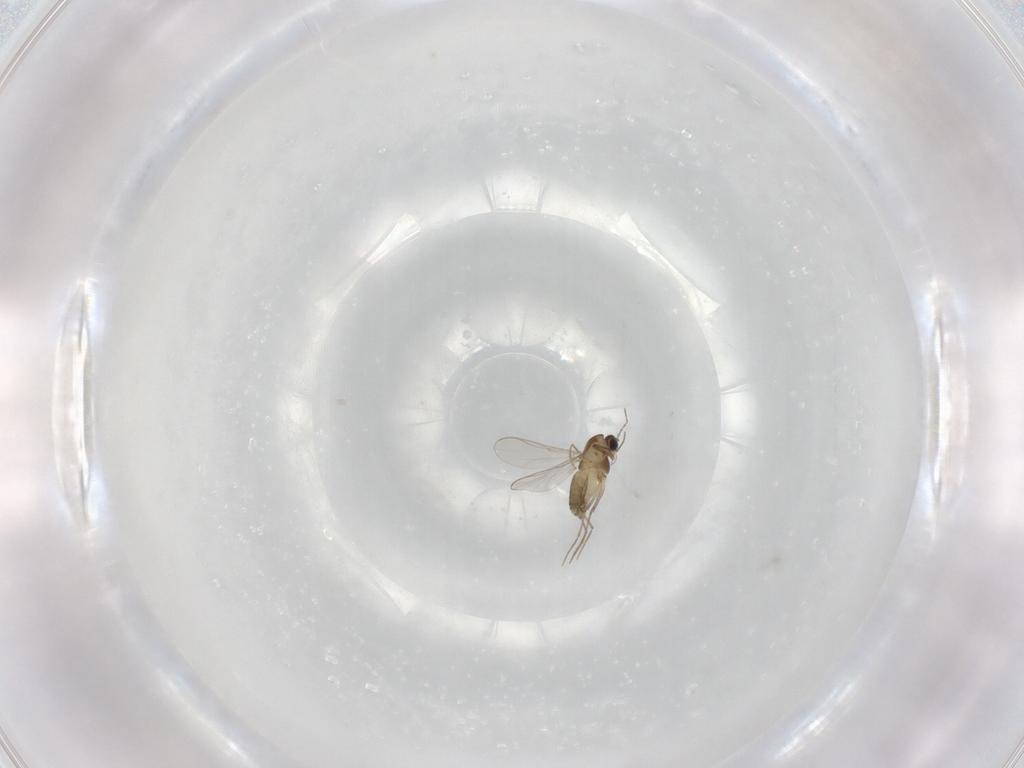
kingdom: Animalia
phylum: Arthropoda
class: Insecta
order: Diptera
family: Chironomidae
